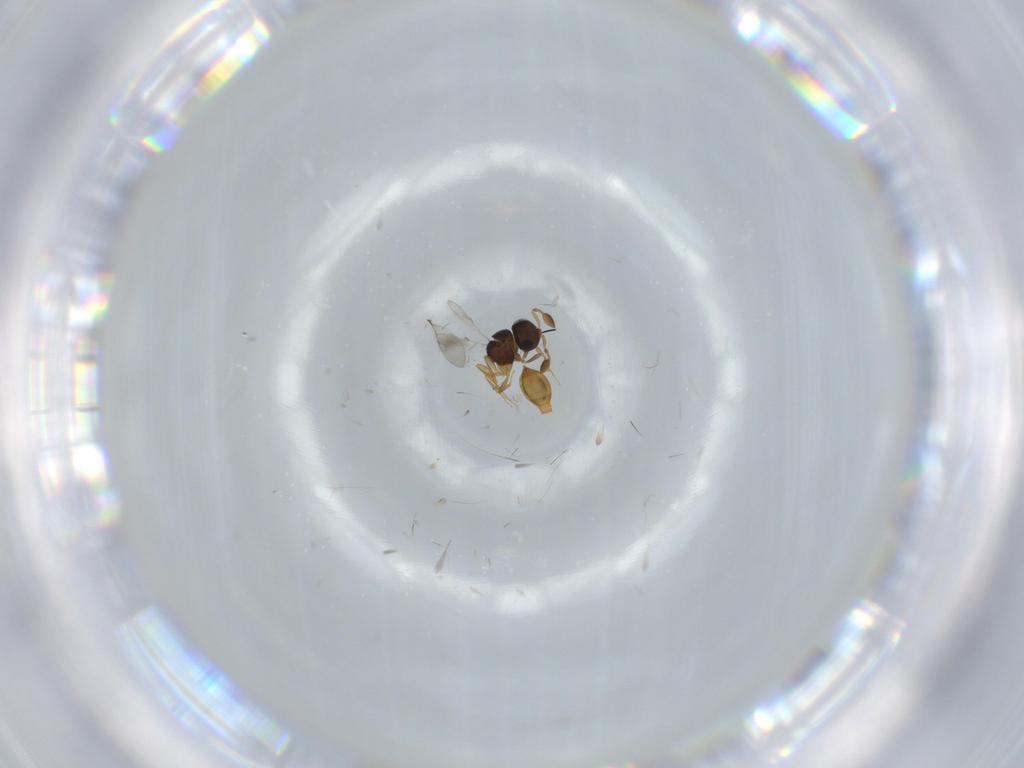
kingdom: Animalia
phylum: Arthropoda
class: Insecta
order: Hymenoptera
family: Scelionidae
